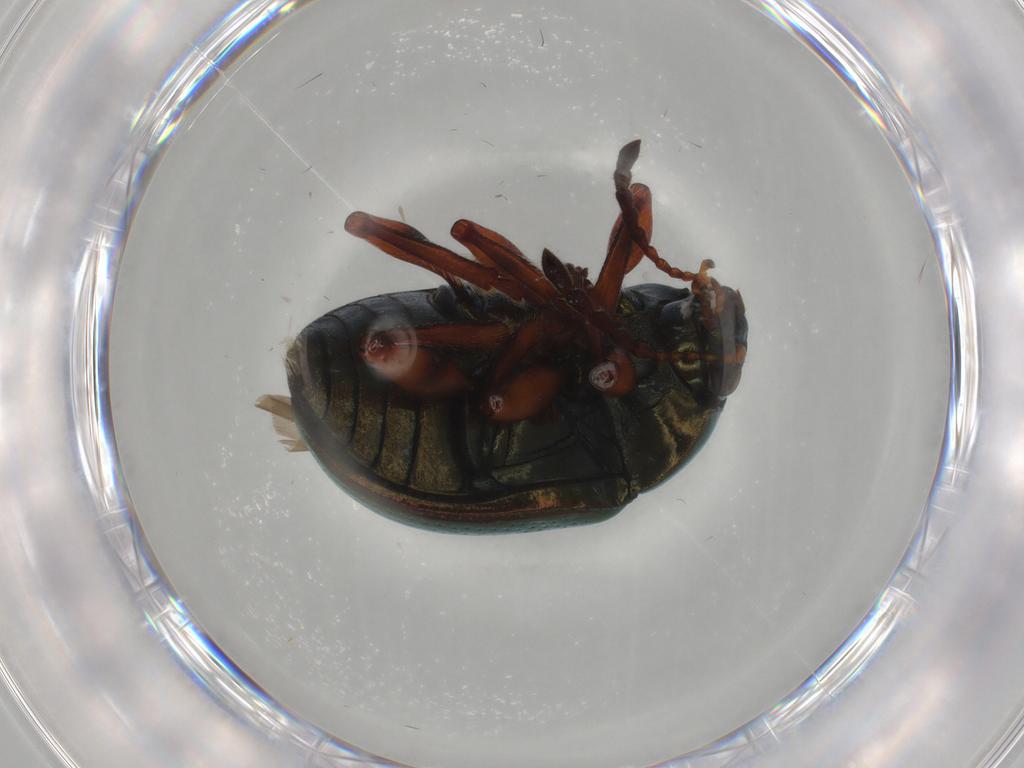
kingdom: Animalia
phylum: Arthropoda
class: Insecta
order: Coleoptera
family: Chrysomelidae
